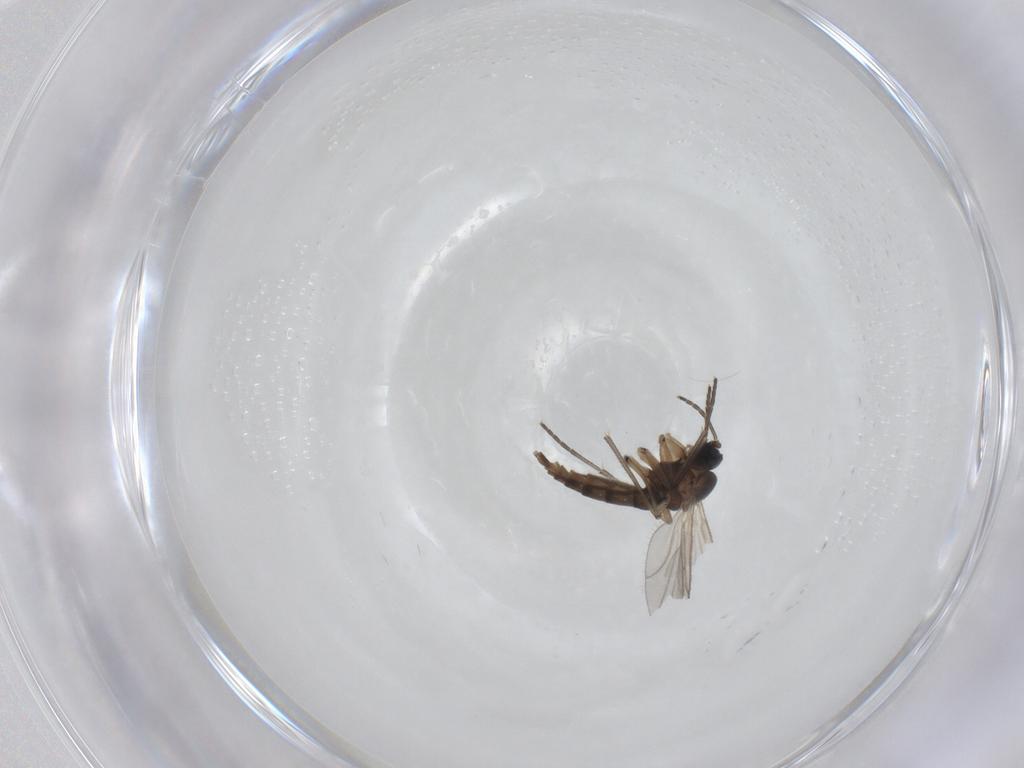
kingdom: Animalia
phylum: Arthropoda
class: Insecta
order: Diptera
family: Sciaridae
